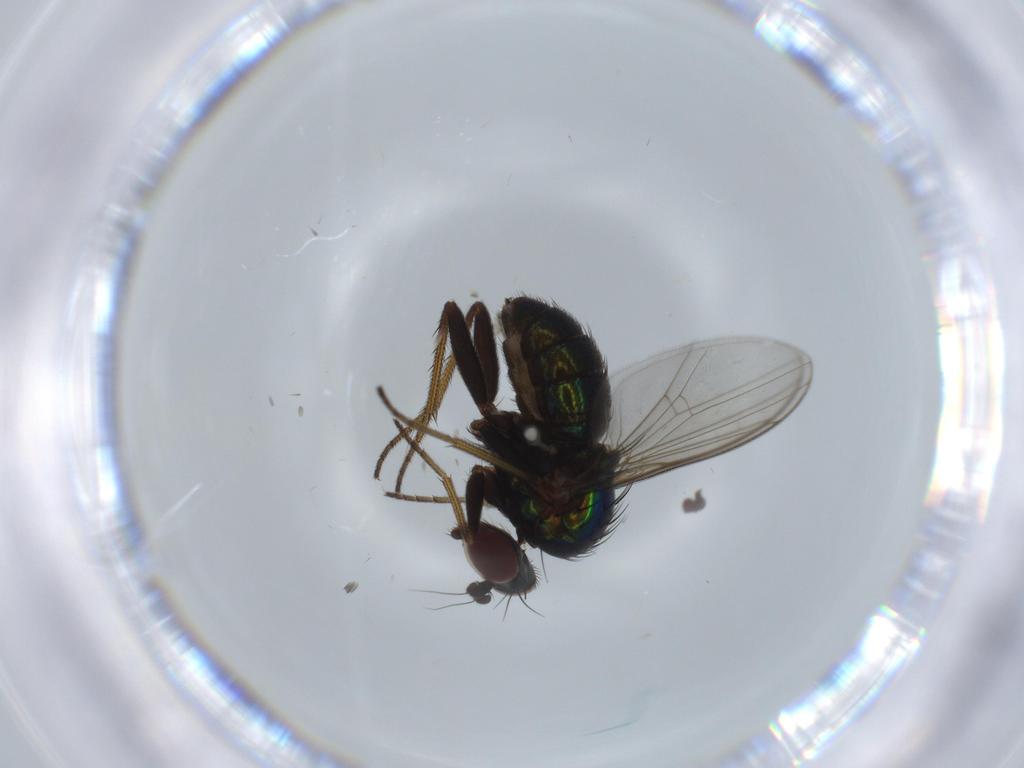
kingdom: Animalia
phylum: Arthropoda
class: Insecta
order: Diptera
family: Dolichopodidae
